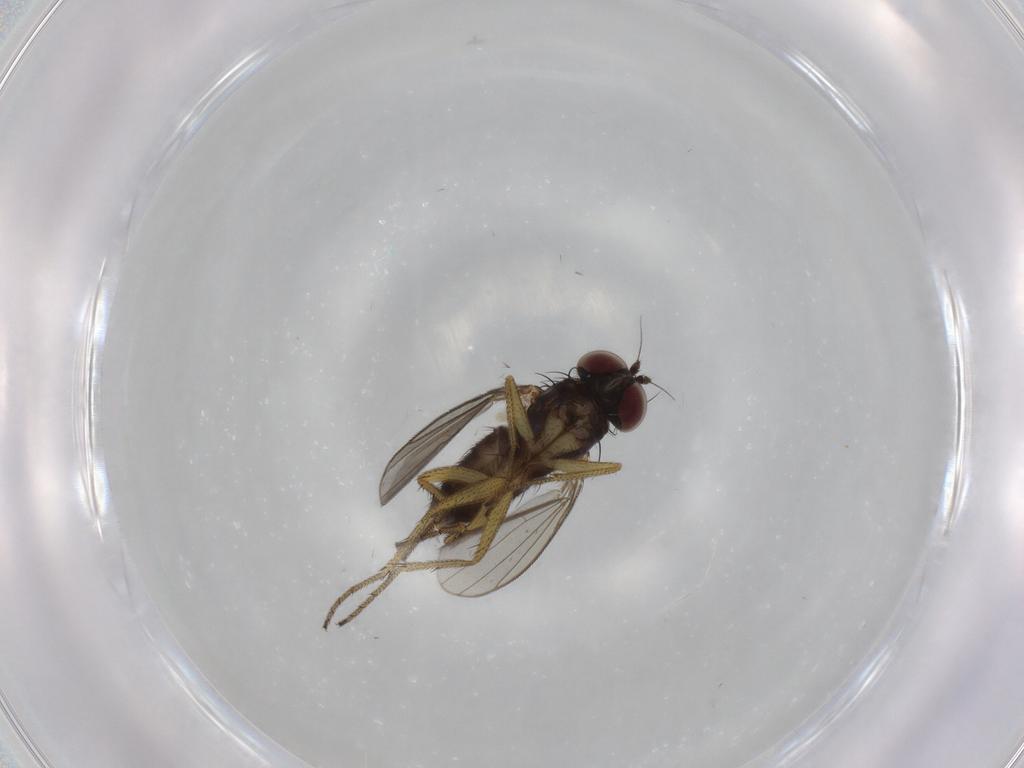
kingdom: Animalia
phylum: Arthropoda
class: Insecta
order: Diptera
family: Dolichopodidae
